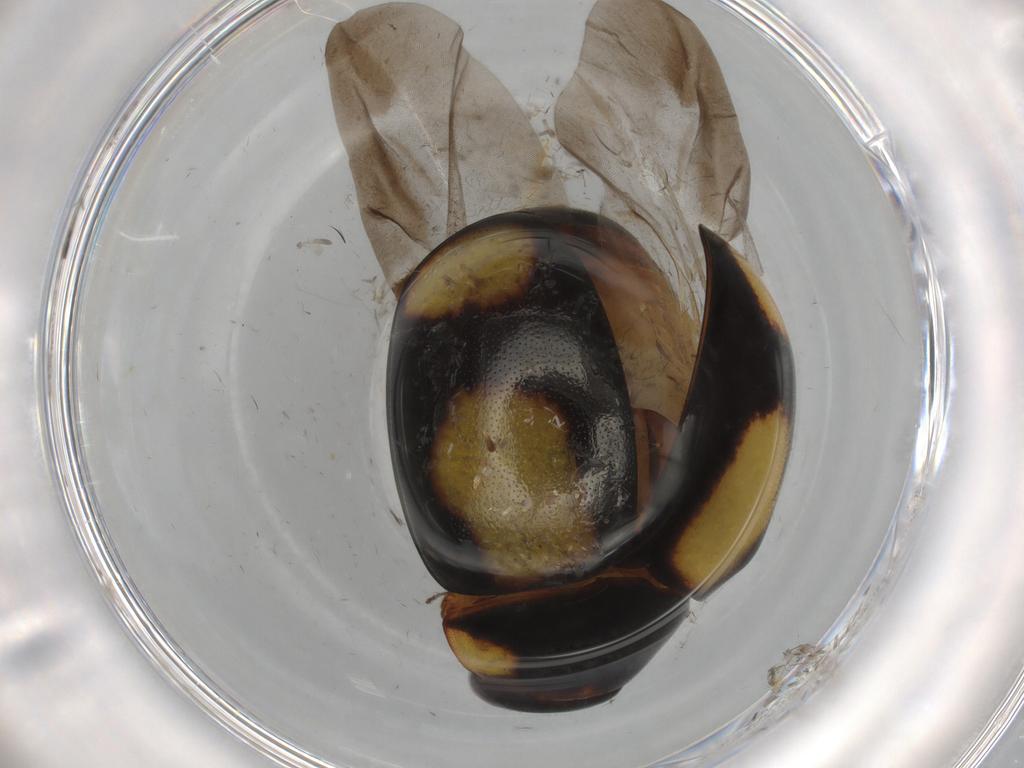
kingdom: Animalia
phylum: Arthropoda
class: Insecta
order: Coleoptera
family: Coccinellidae
